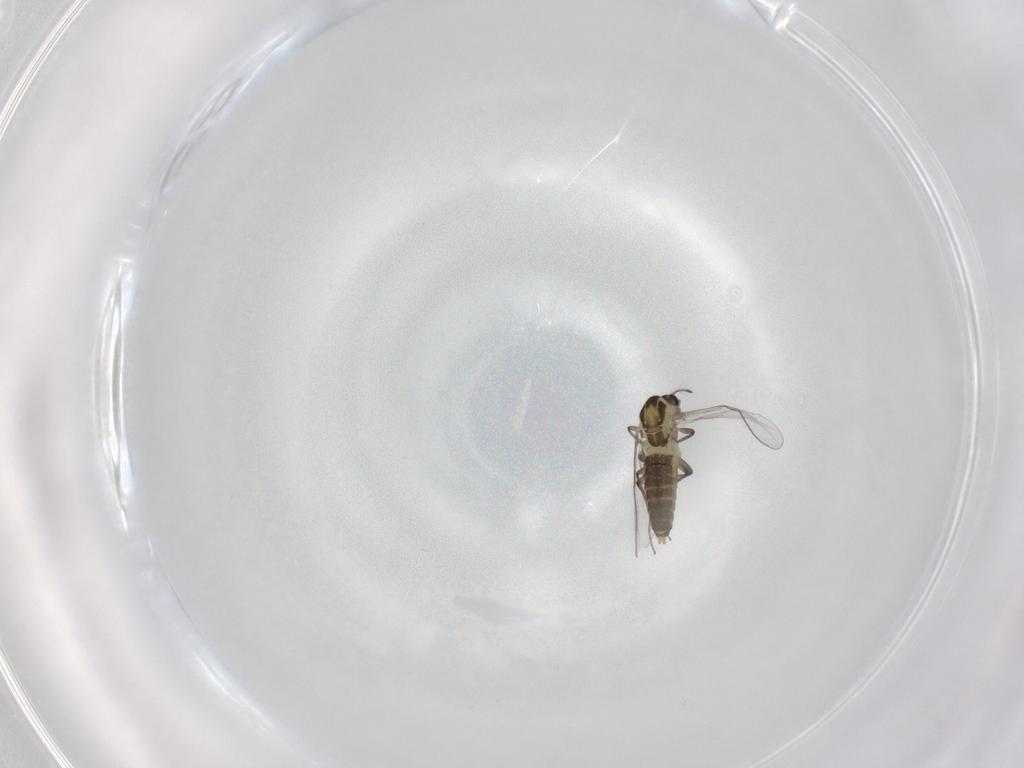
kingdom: Animalia
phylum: Arthropoda
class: Insecta
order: Diptera
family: Chironomidae
